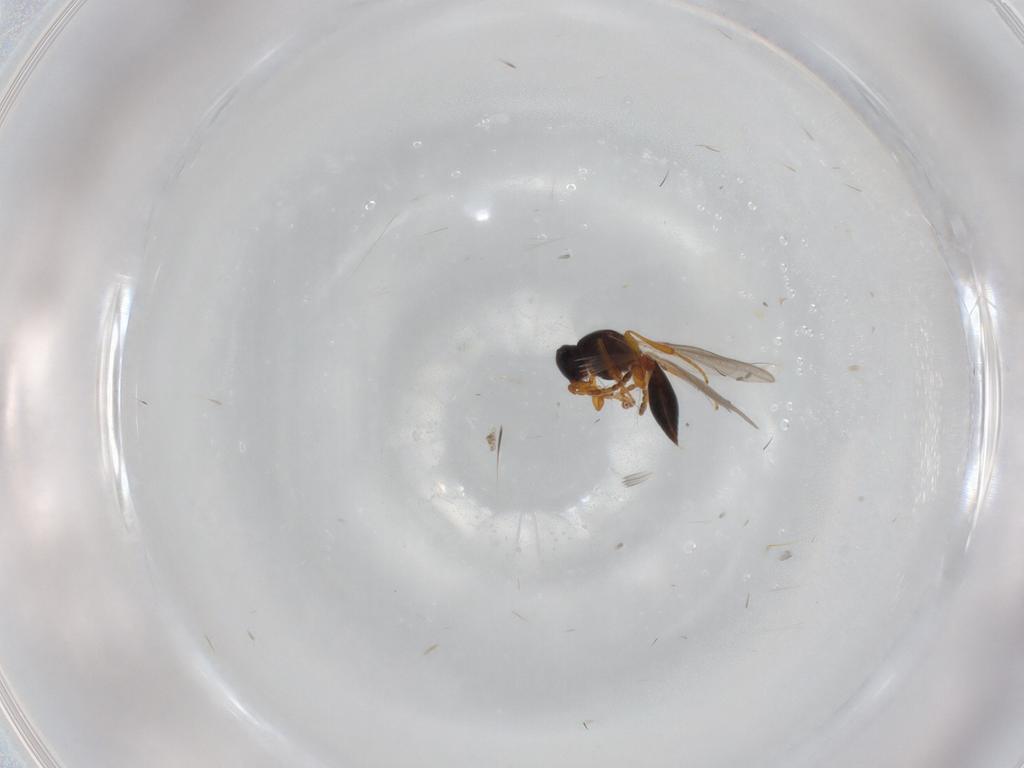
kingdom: Animalia
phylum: Arthropoda
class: Insecta
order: Hymenoptera
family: Platygastridae
